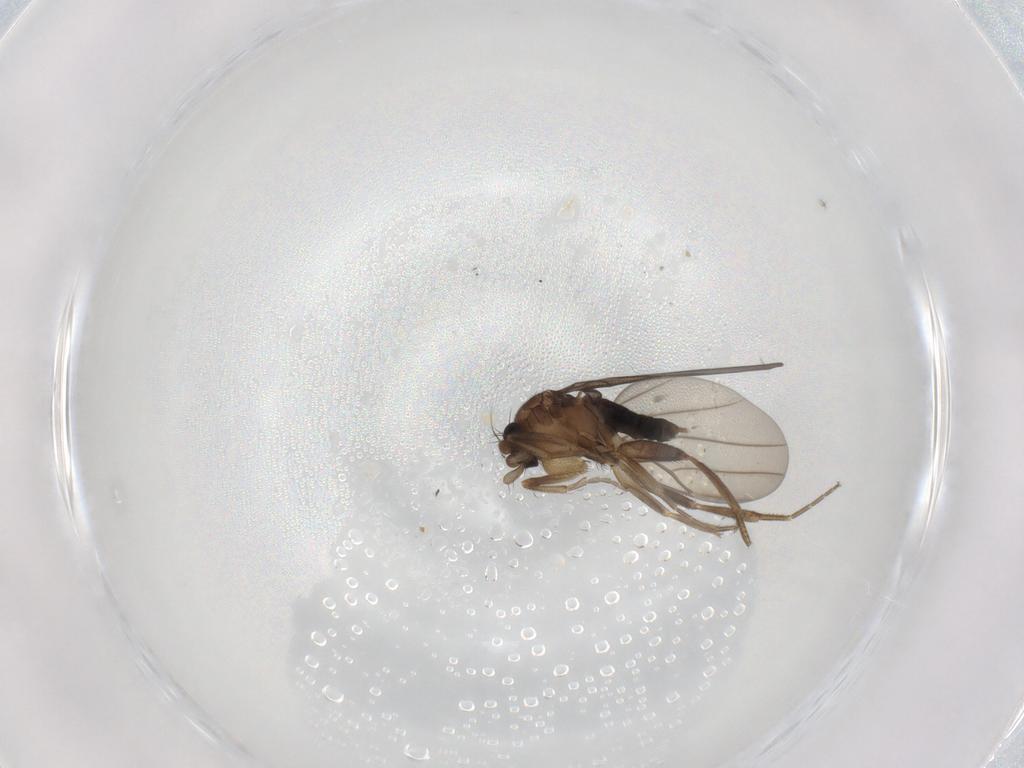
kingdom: Animalia
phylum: Arthropoda
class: Insecta
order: Diptera
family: Phoridae
